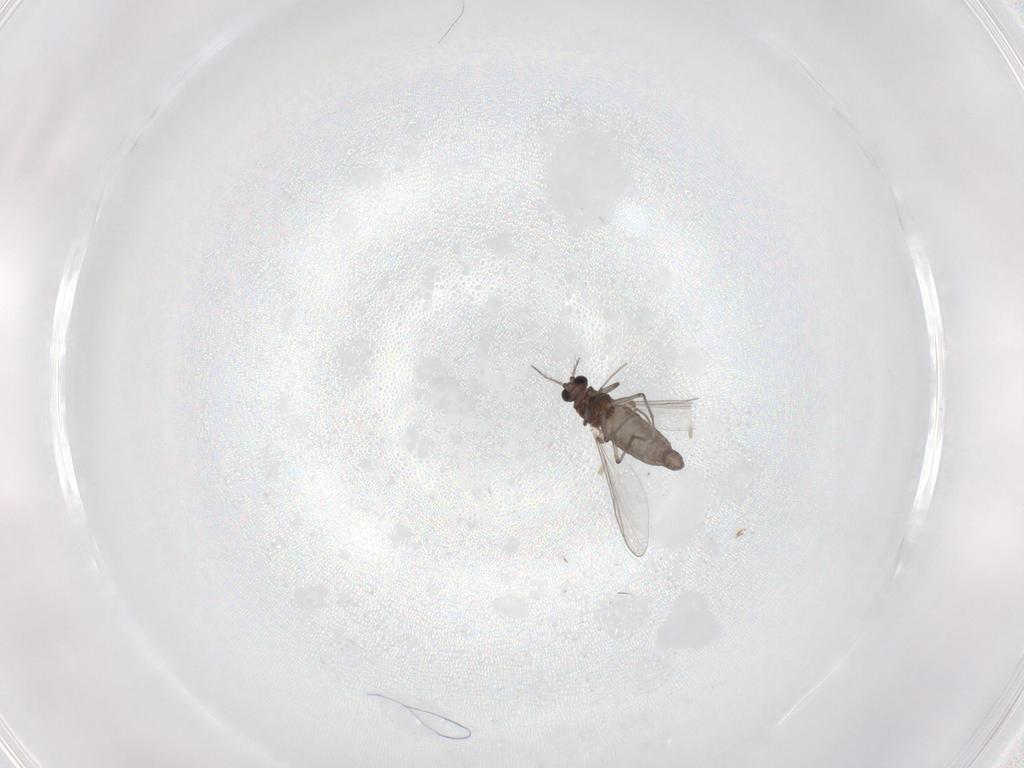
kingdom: Animalia
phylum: Arthropoda
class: Insecta
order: Diptera
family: Chironomidae
